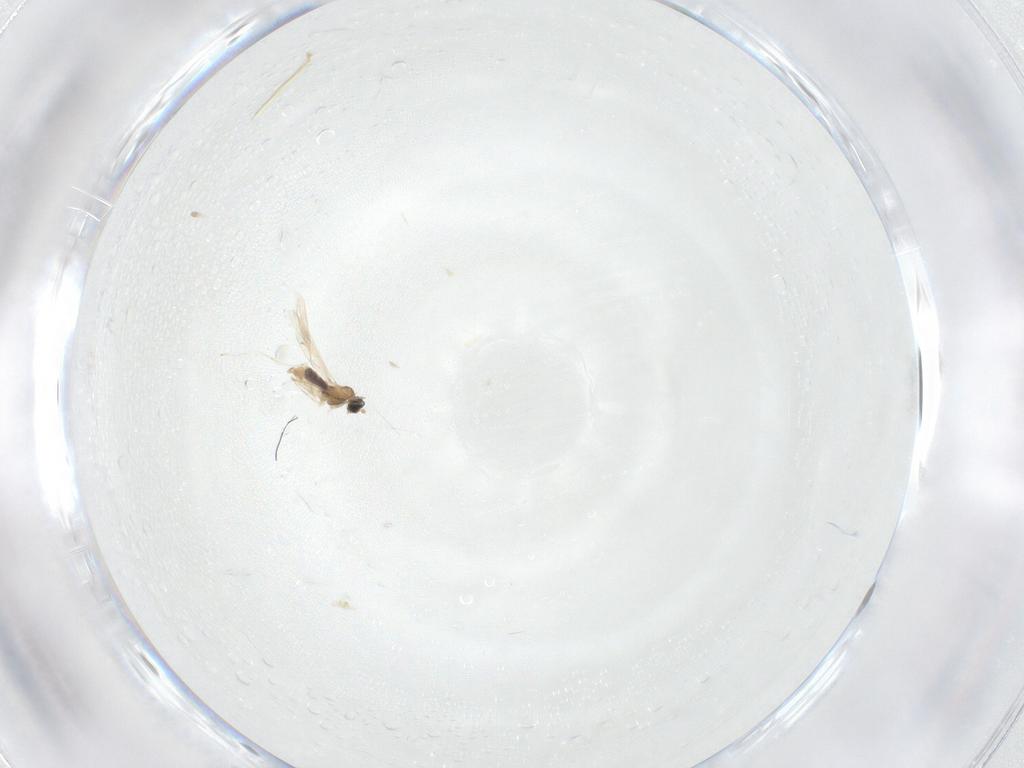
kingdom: Animalia
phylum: Arthropoda
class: Insecta
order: Diptera
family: Cecidomyiidae
